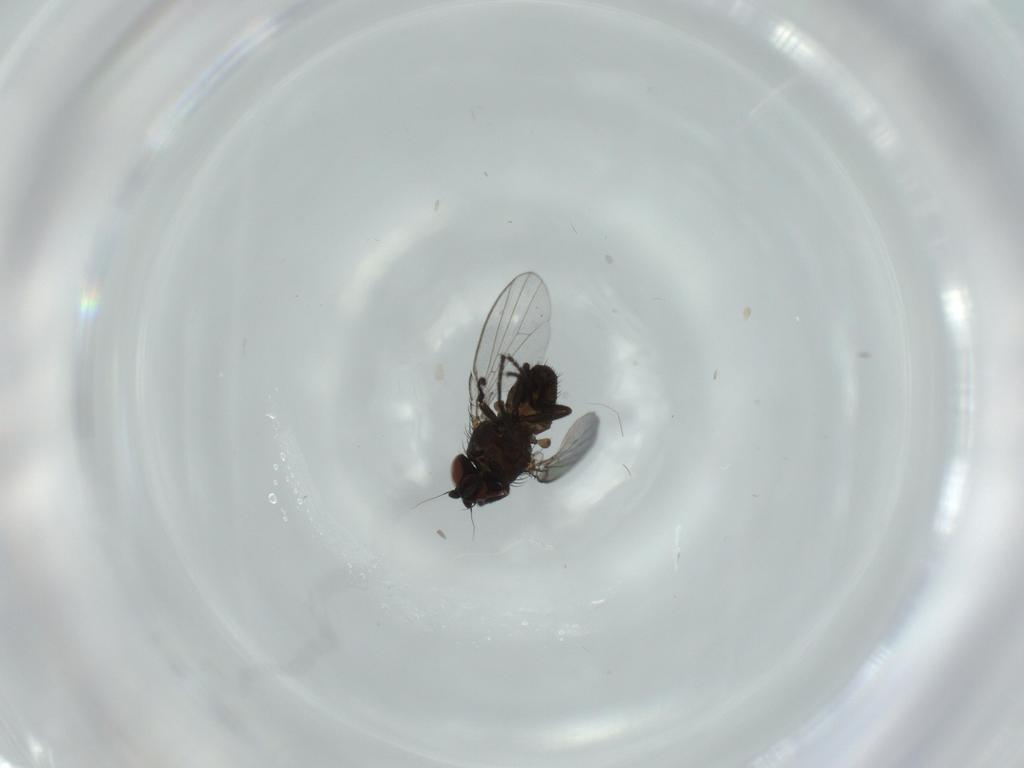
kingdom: Animalia
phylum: Arthropoda
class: Insecta
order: Diptera
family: Milichiidae
